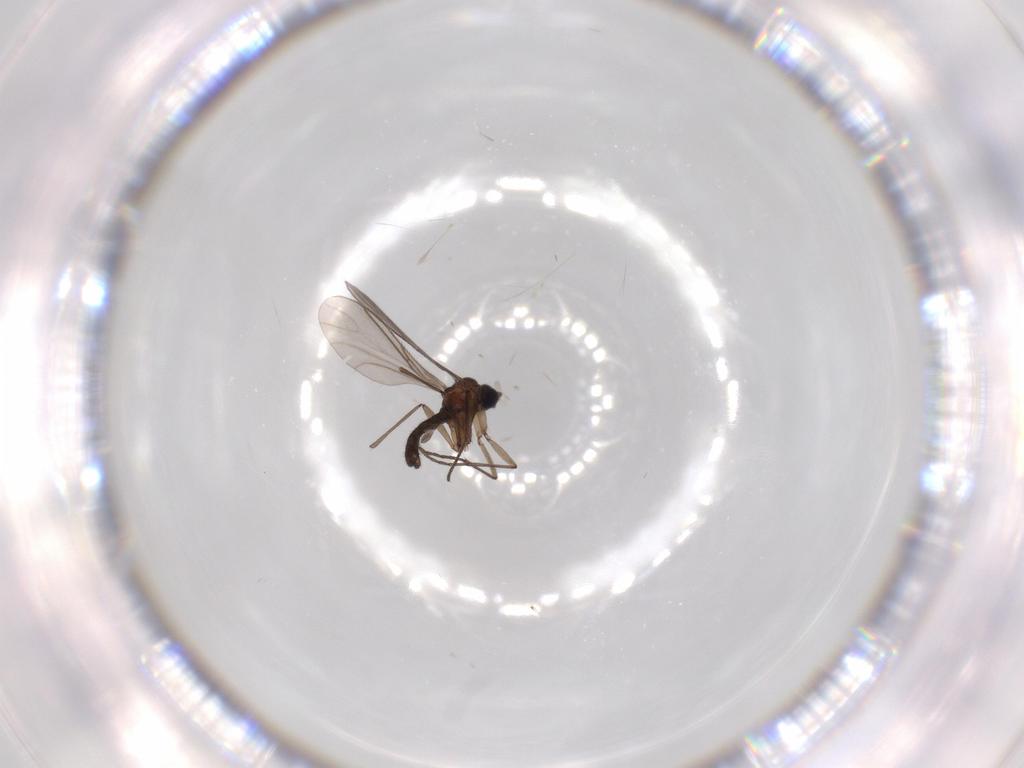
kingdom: Animalia
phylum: Arthropoda
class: Insecta
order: Diptera
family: Sciaridae
